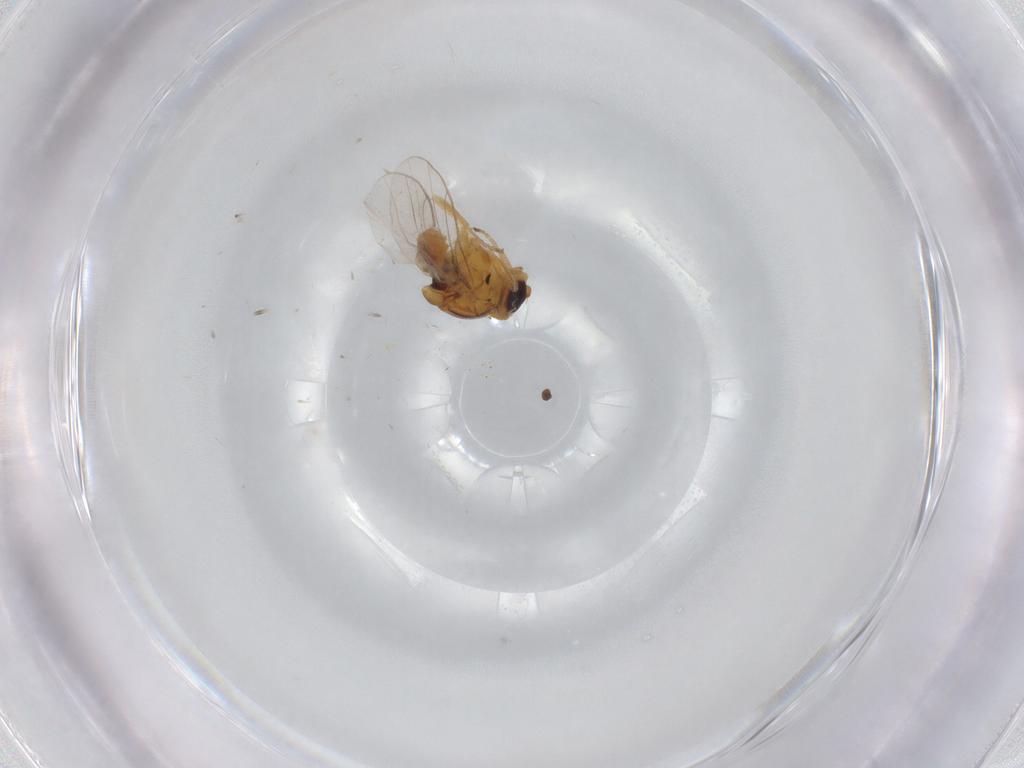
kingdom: Animalia
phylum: Arthropoda
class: Insecta
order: Diptera
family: Chloropidae
